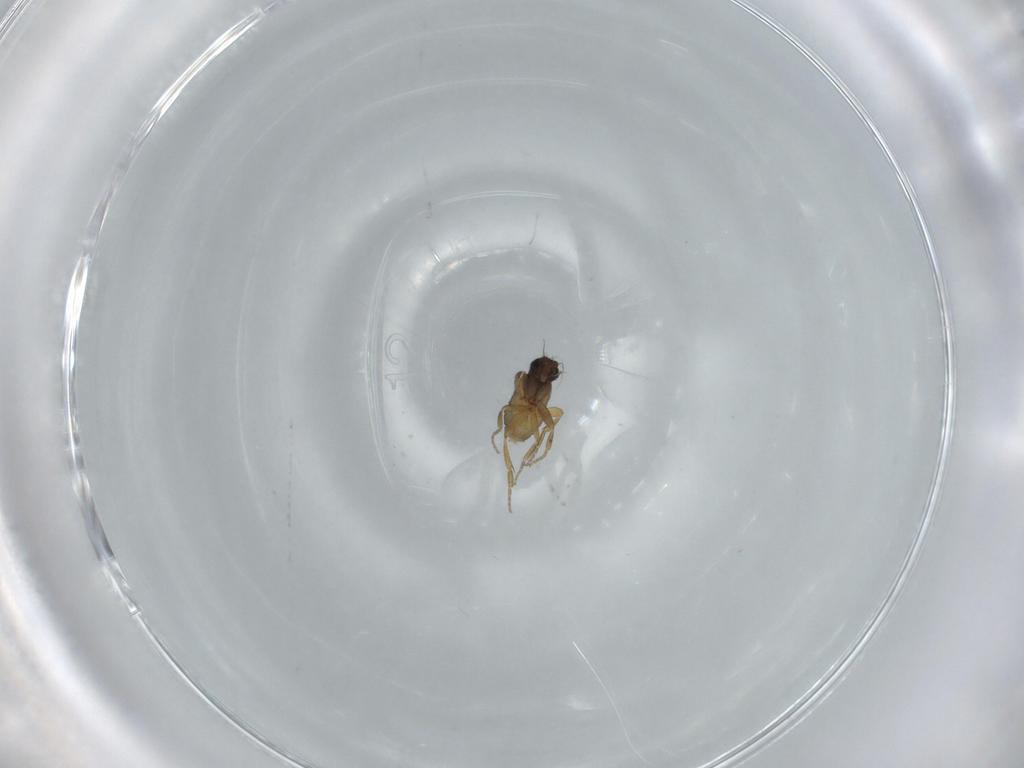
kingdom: Animalia
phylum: Arthropoda
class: Insecta
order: Diptera
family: Phoridae
